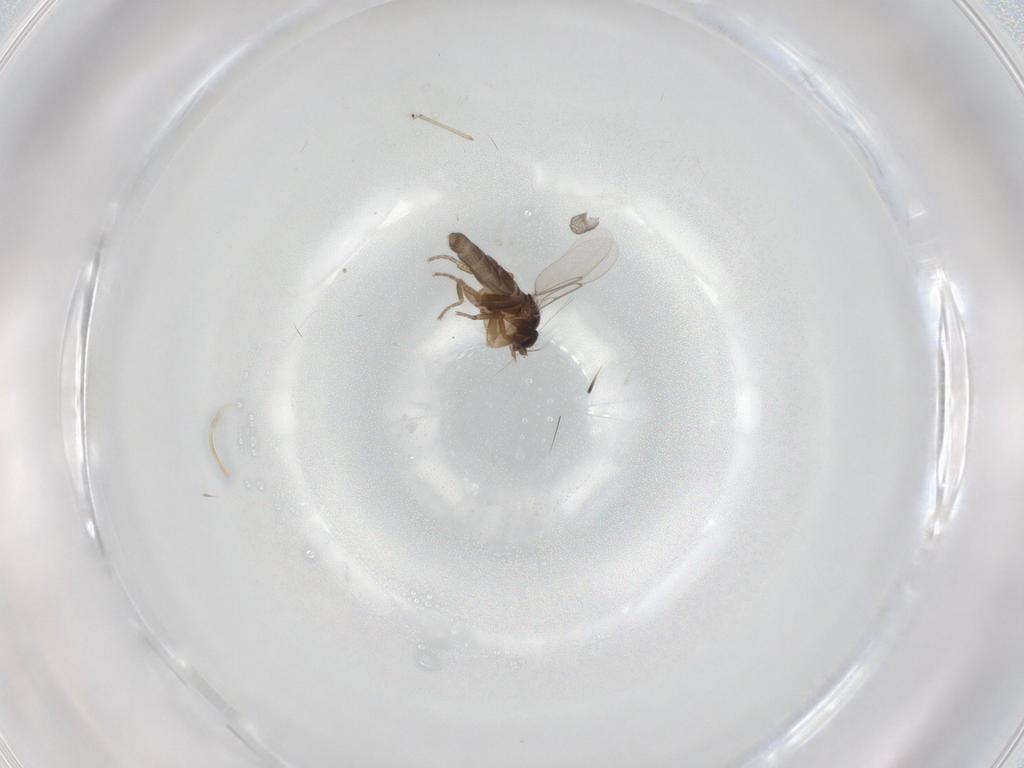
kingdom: Animalia
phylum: Arthropoda
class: Insecta
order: Diptera
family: Phoridae
